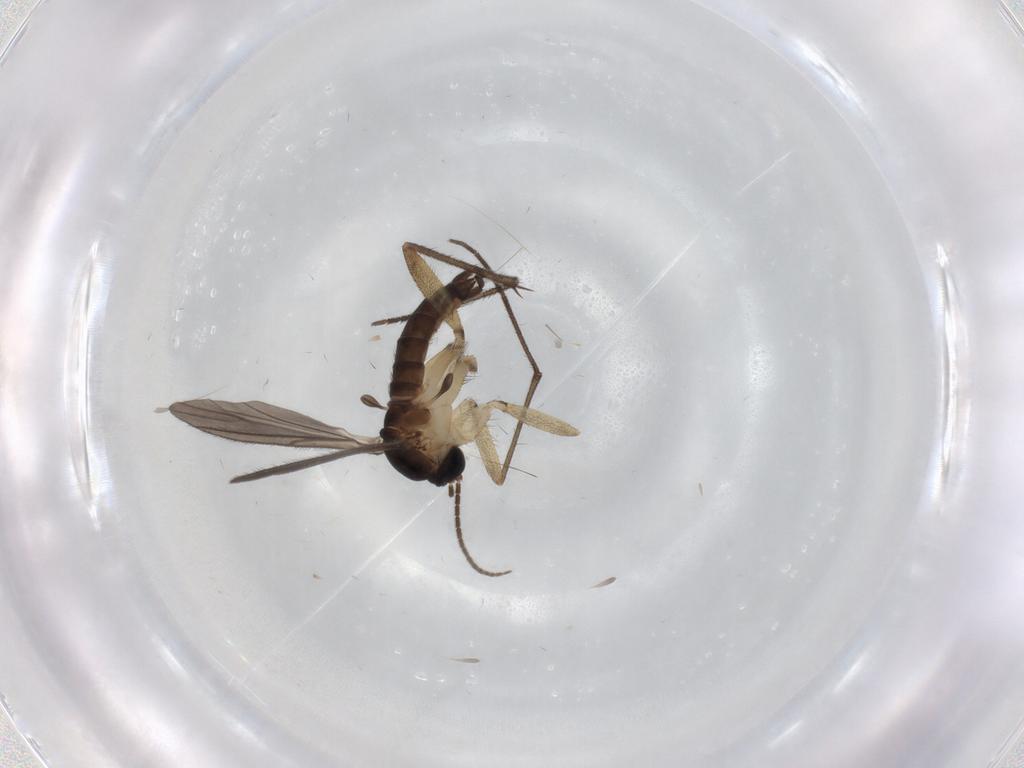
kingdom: Animalia
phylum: Arthropoda
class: Insecta
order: Diptera
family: Sciaridae
